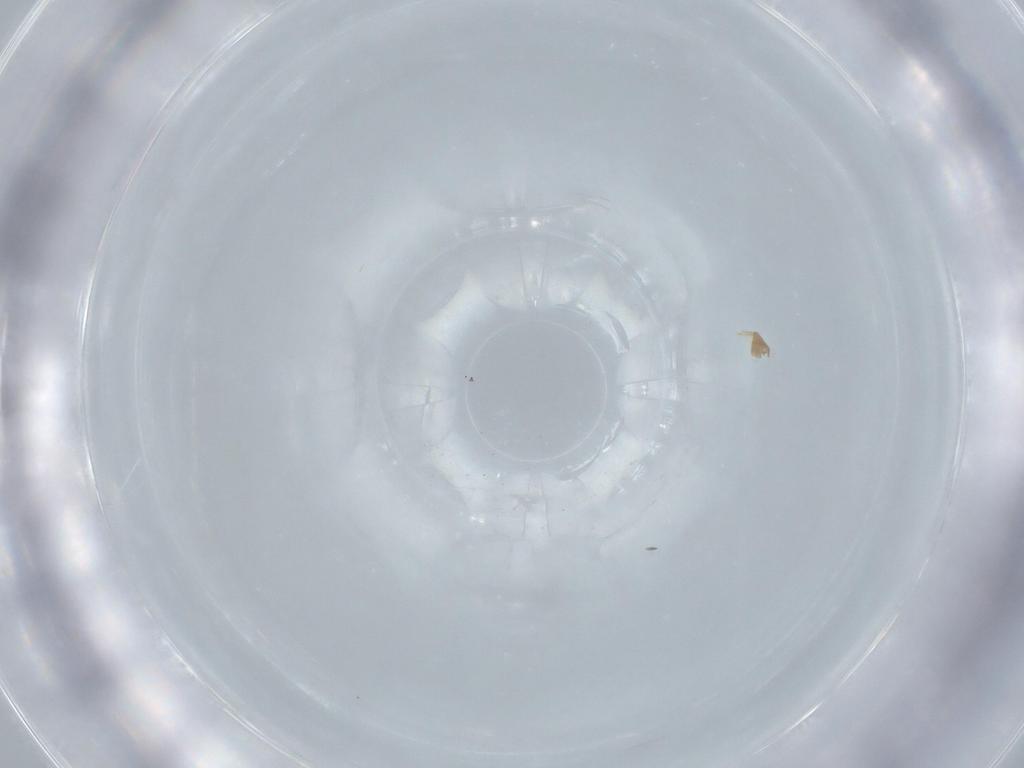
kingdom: Animalia
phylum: Arthropoda
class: Insecta
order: Diptera
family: Cecidomyiidae
